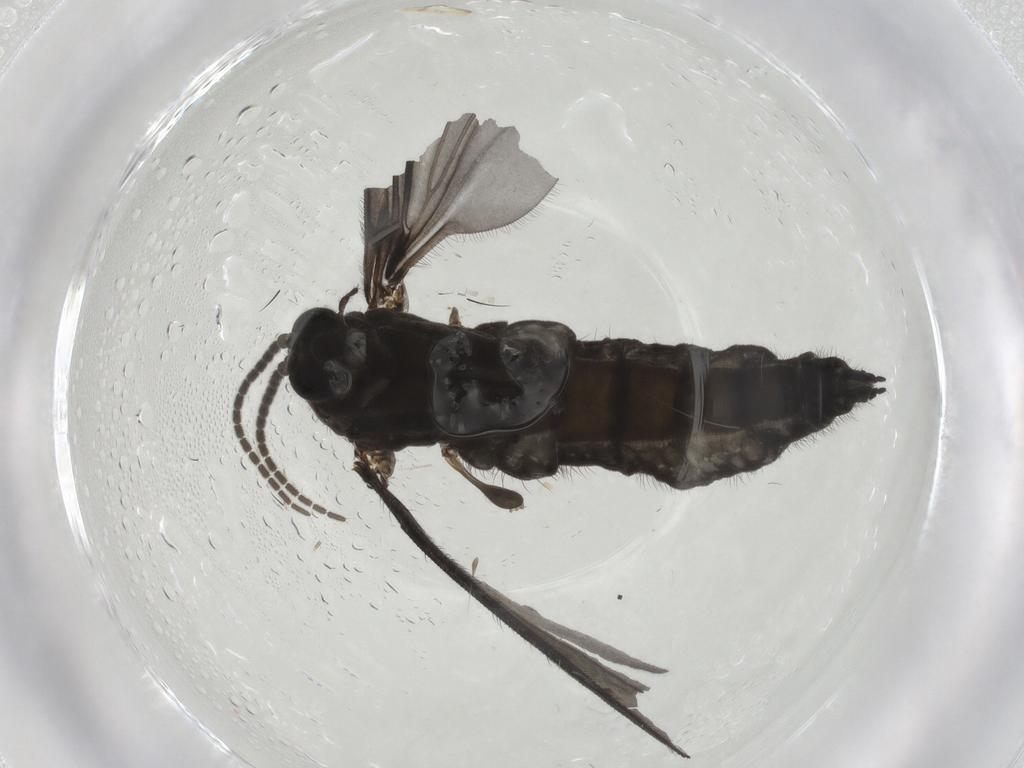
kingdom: Animalia
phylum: Arthropoda
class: Insecta
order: Diptera
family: Sciaridae
